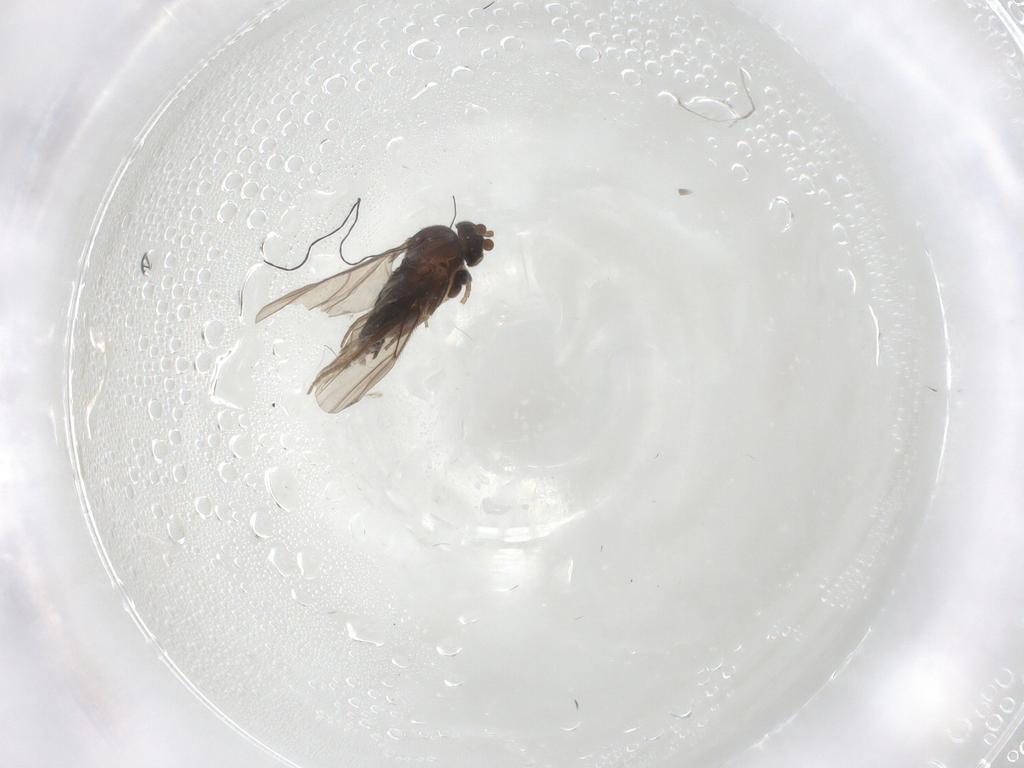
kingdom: Animalia
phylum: Arthropoda
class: Insecta
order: Diptera
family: Phoridae
